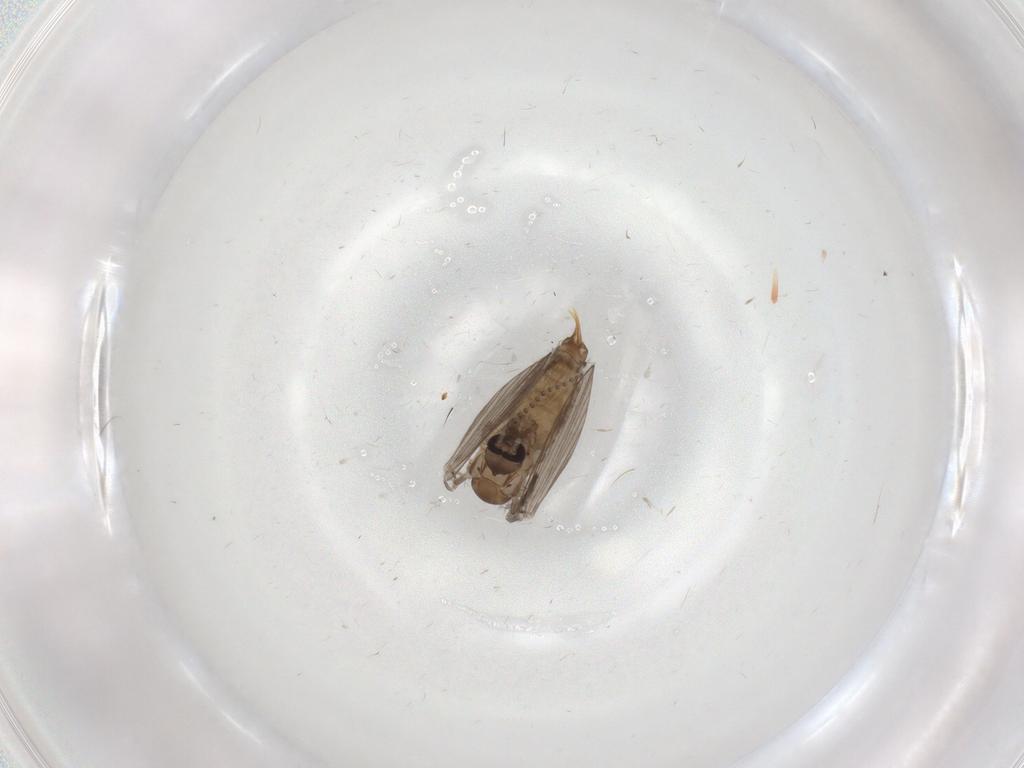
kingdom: Animalia
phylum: Arthropoda
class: Insecta
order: Diptera
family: Psychodidae
